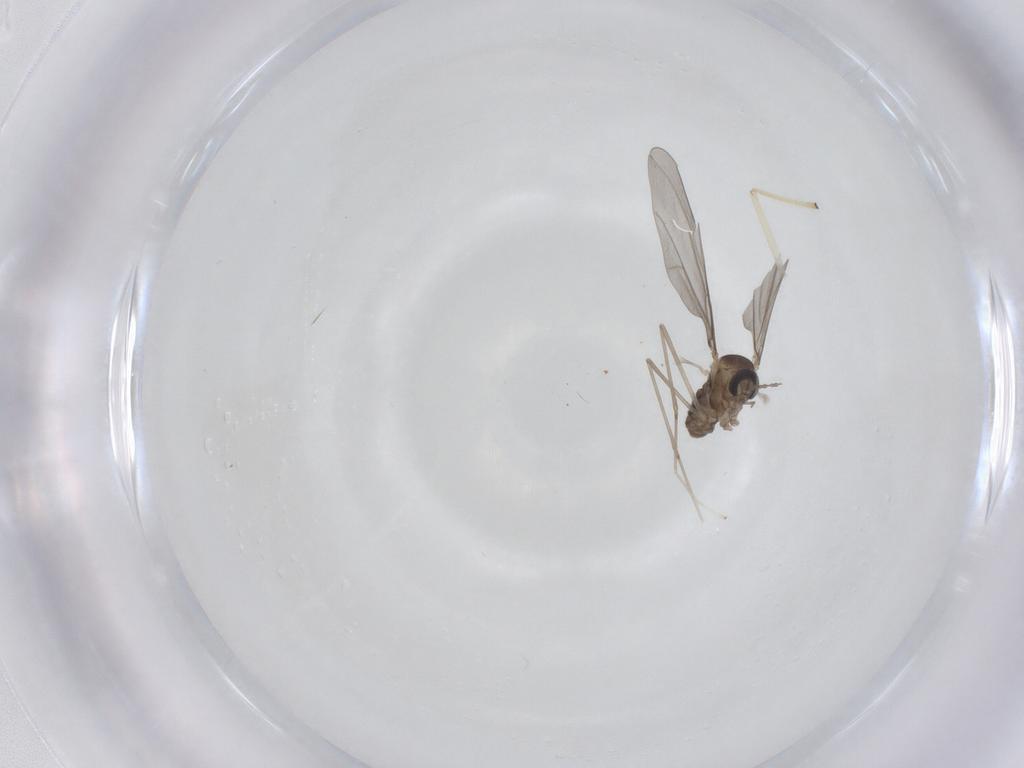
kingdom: Animalia
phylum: Arthropoda
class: Insecta
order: Diptera
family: Cecidomyiidae
